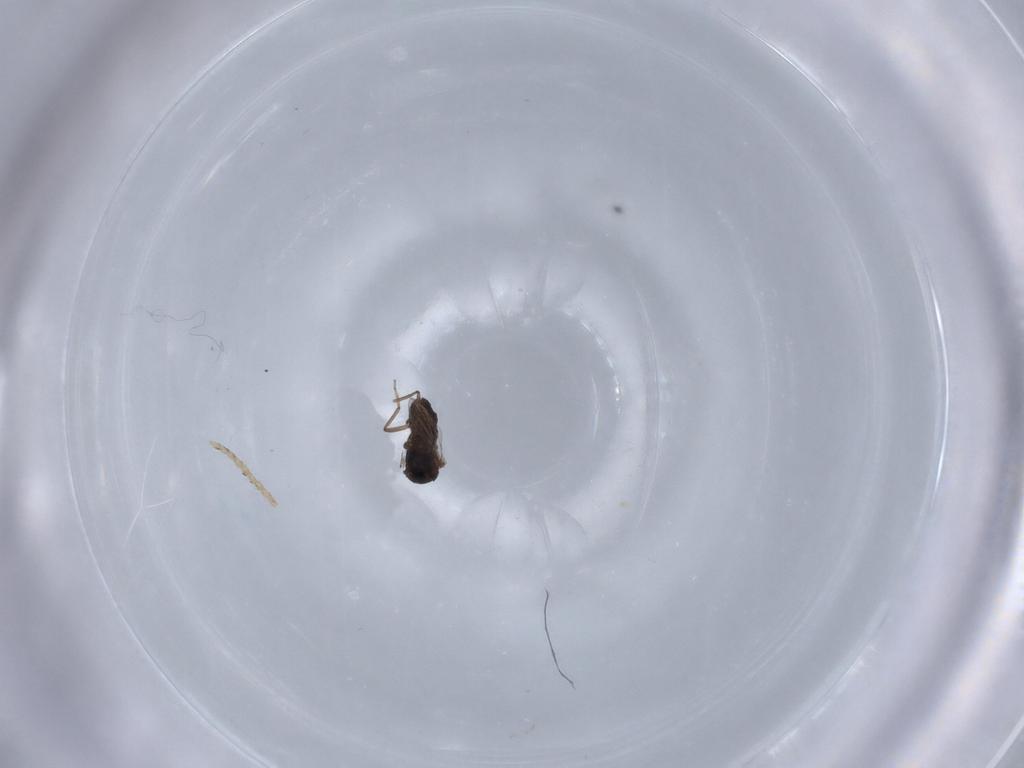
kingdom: Animalia
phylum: Arthropoda
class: Insecta
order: Diptera
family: Ceratopogonidae
